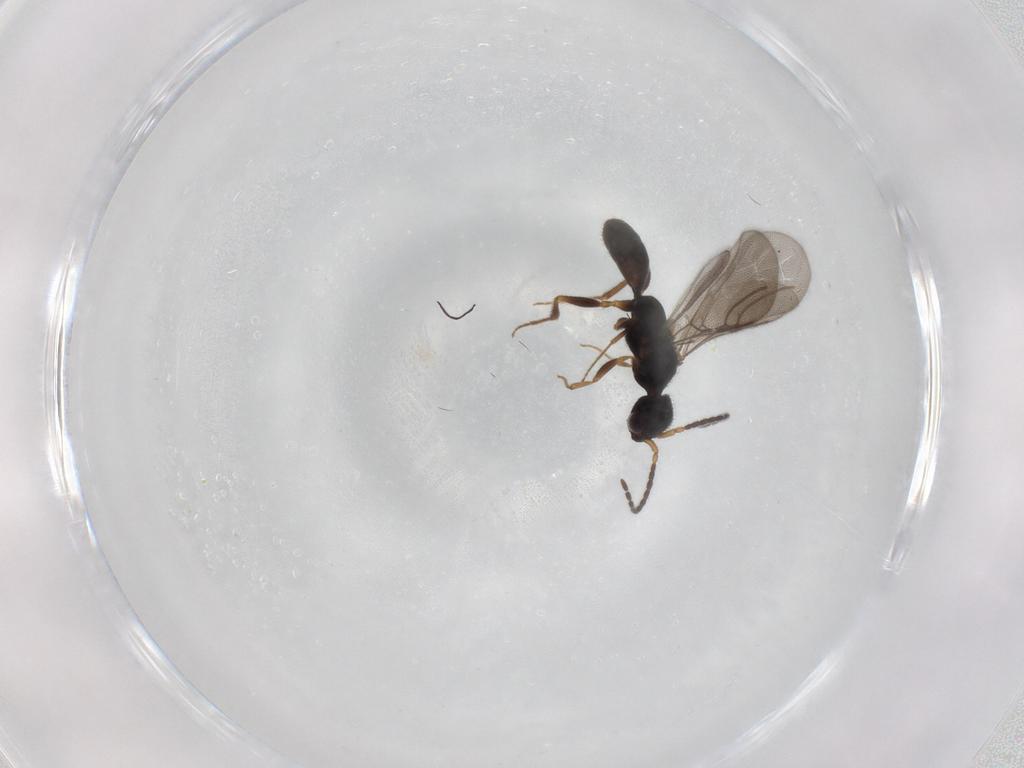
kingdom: Animalia
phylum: Arthropoda
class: Insecta
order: Hymenoptera
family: Bethylidae
